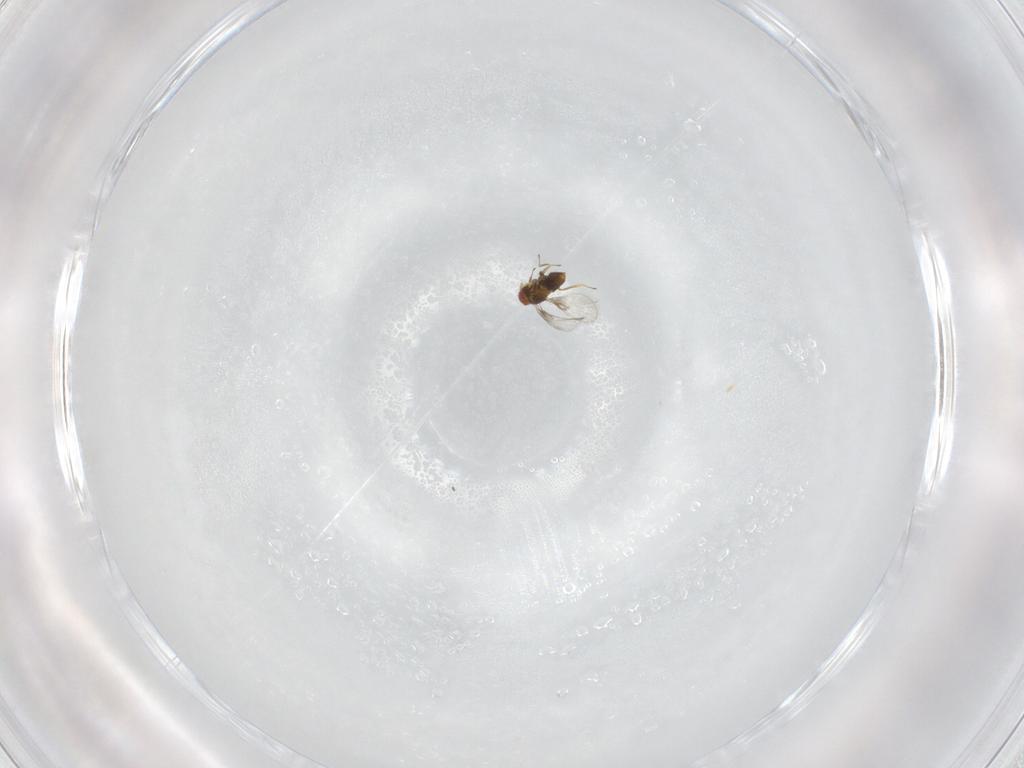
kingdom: Animalia
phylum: Arthropoda
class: Insecta
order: Hymenoptera
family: Trichogrammatidae
